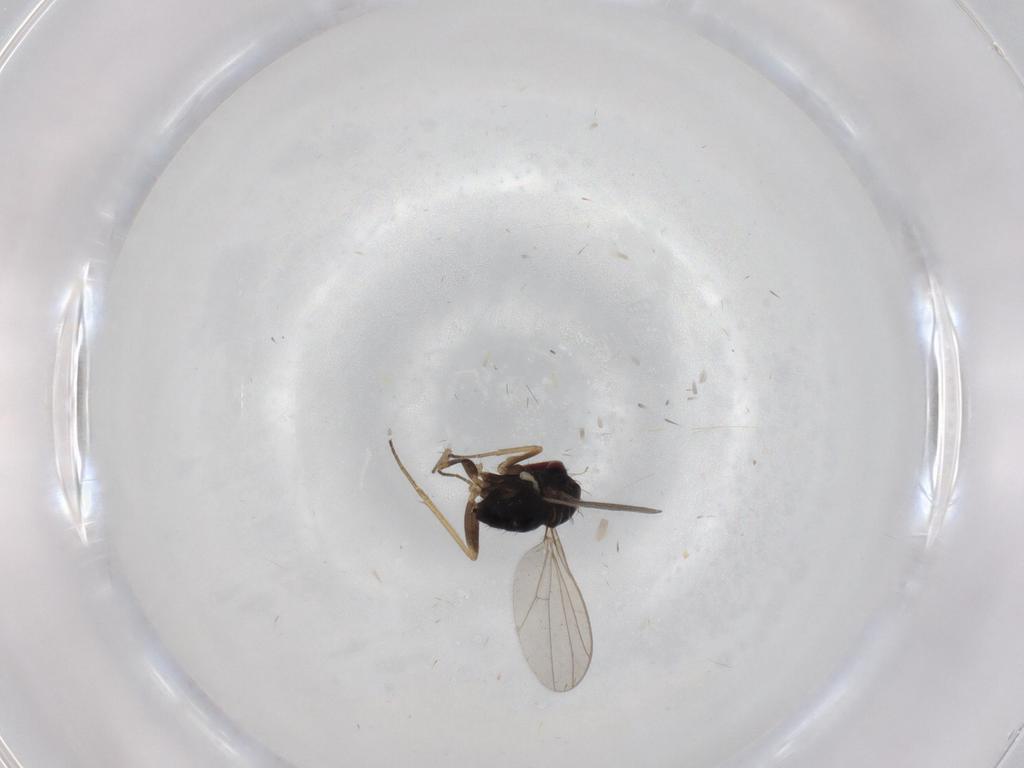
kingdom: Animalia
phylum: Arthropoda
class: Insecta
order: Diptera
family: Dolichopodidae
